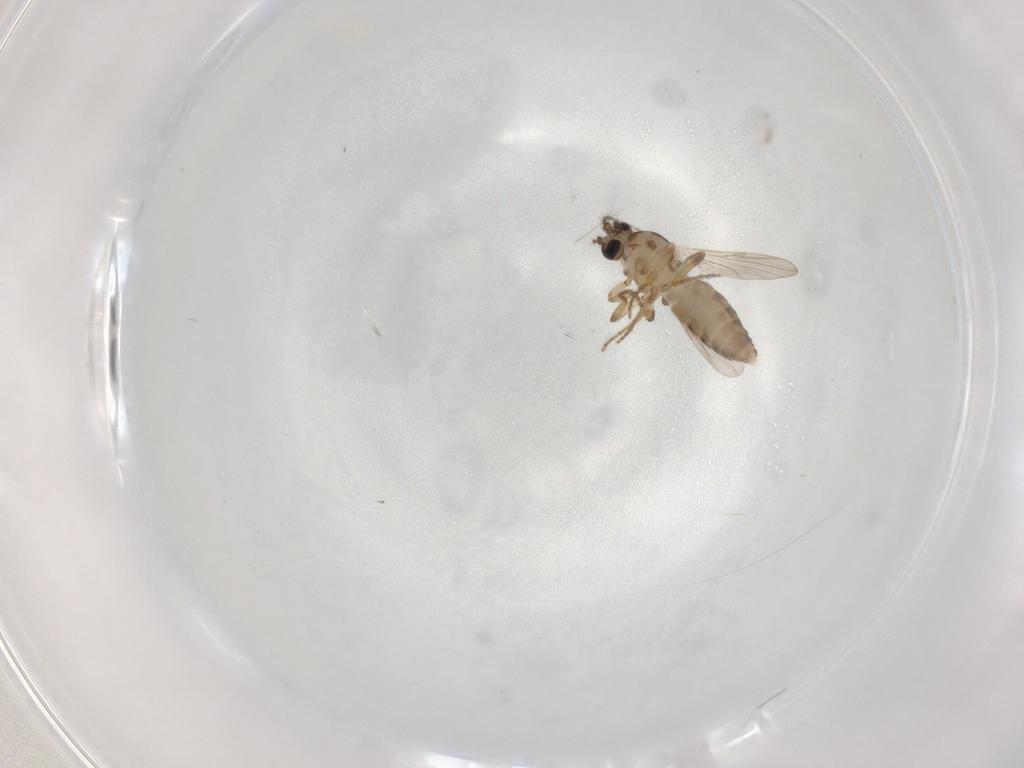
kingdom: Animalia
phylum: Arthropoda
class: Insecta
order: Diptera
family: Ceratopogonidae
